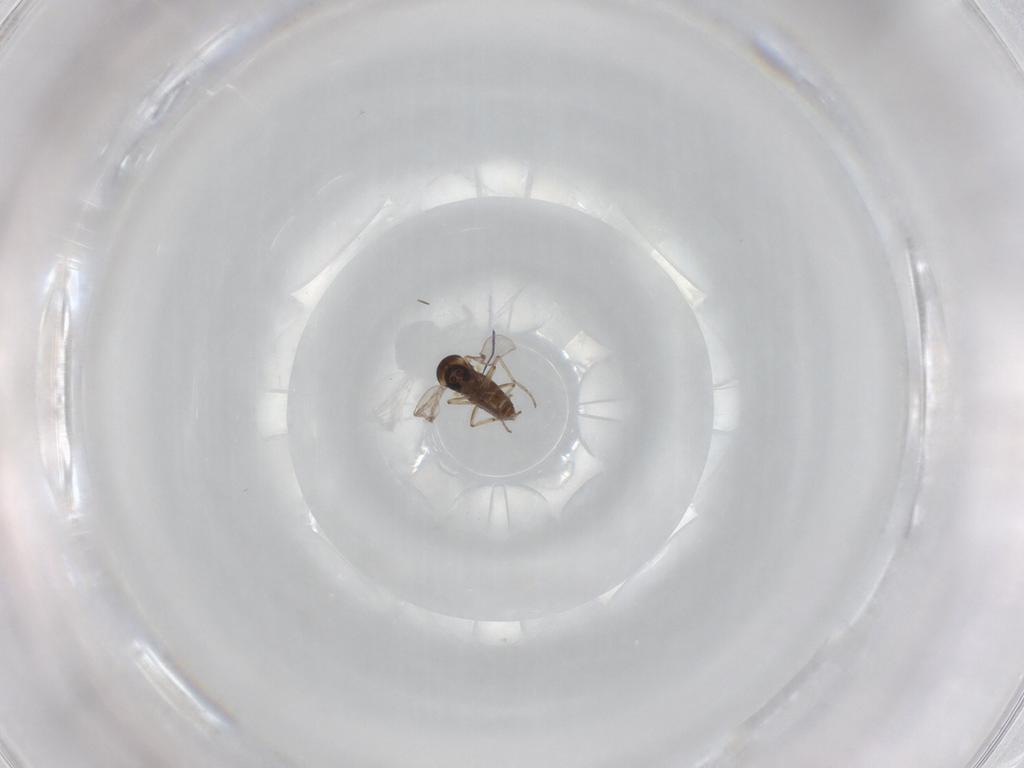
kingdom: Animalia
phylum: Arthropoda
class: Insecta
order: Diptera
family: Ceratopogonidae
